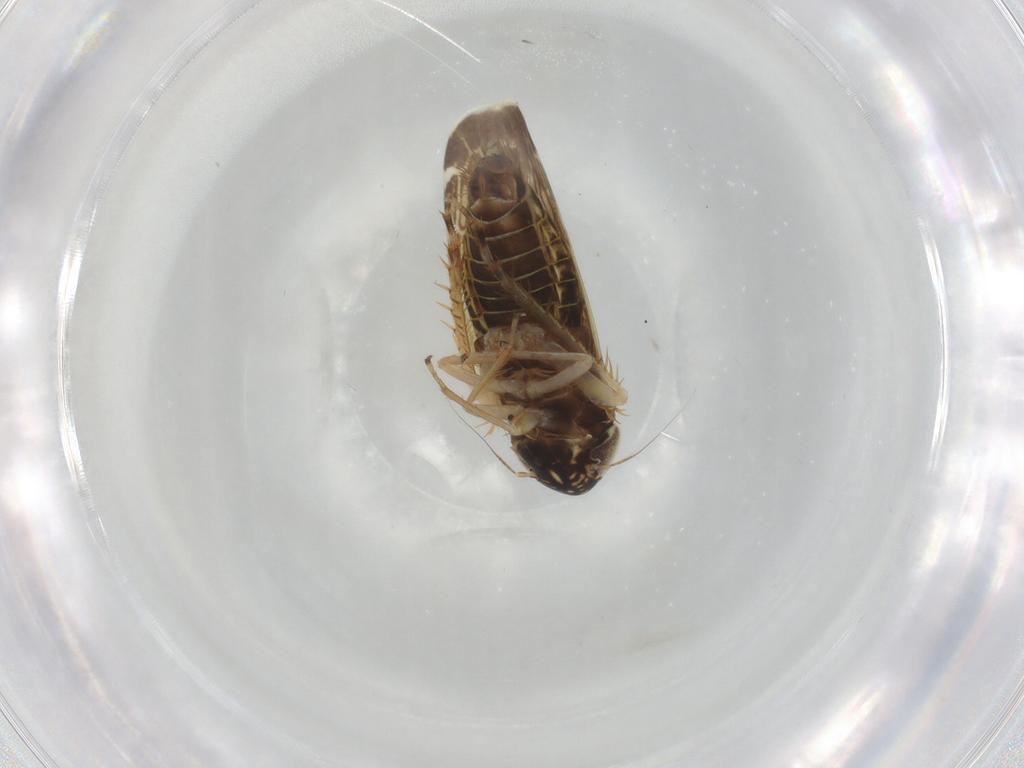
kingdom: Animalia
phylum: Arthropoda
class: Insecta
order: Hemiptera
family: Cicadellidae
